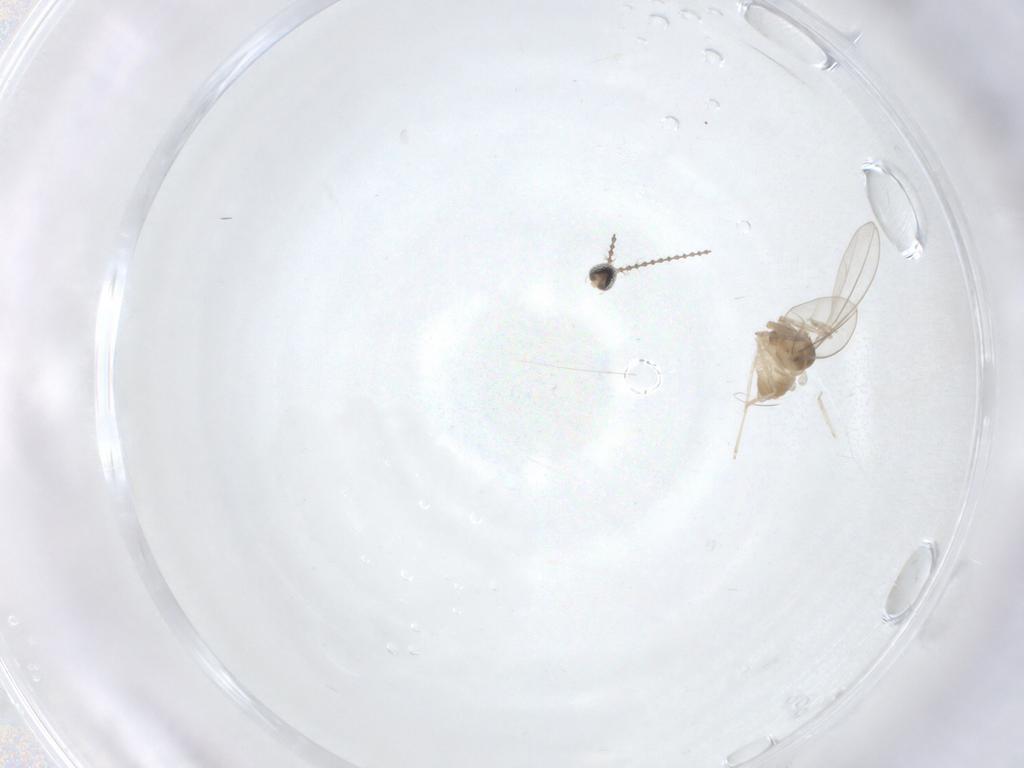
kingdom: Animalia
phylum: Arthropoda
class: Insecta
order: Diptera
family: Cecidomyiidae
